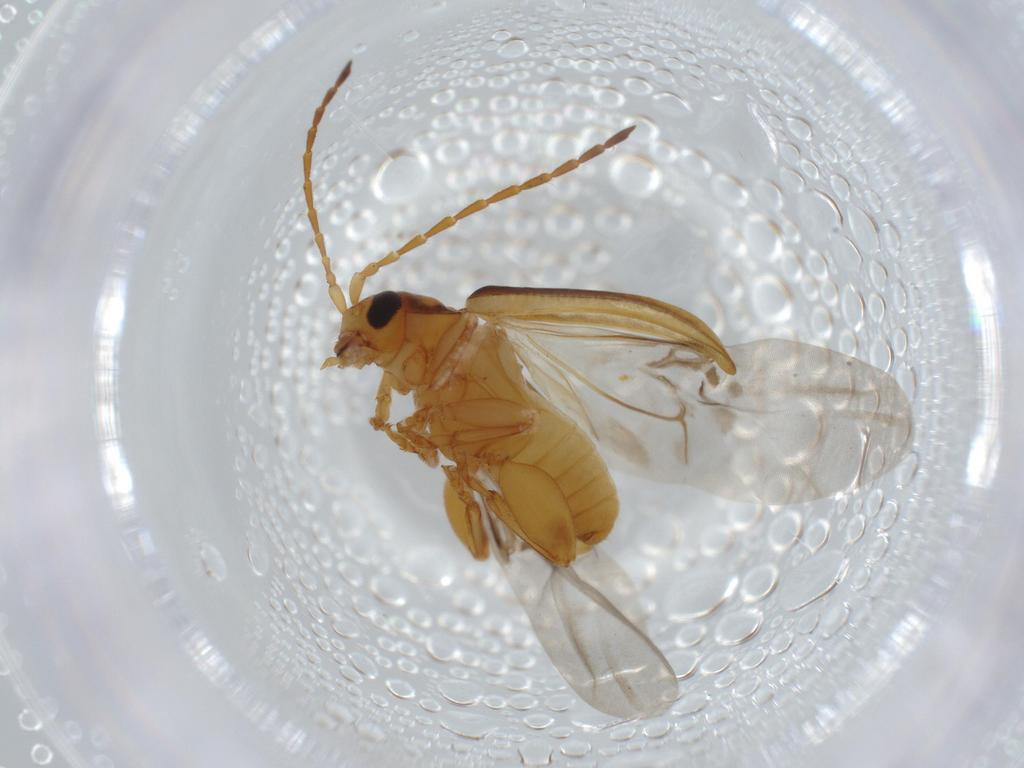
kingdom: Animalia
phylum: Arthropoda
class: Insecta
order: Coleoptera
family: Chrysomelidae
